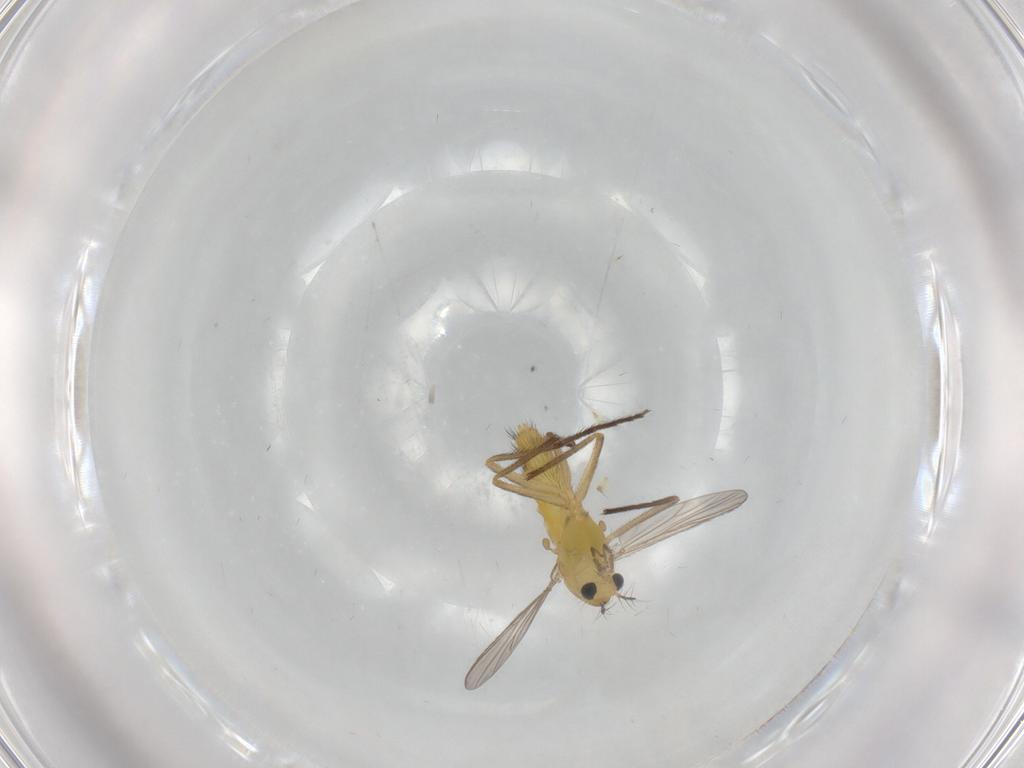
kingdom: Animalia
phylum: Arthropoda
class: Insecta
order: Diptera
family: Chironomidae
